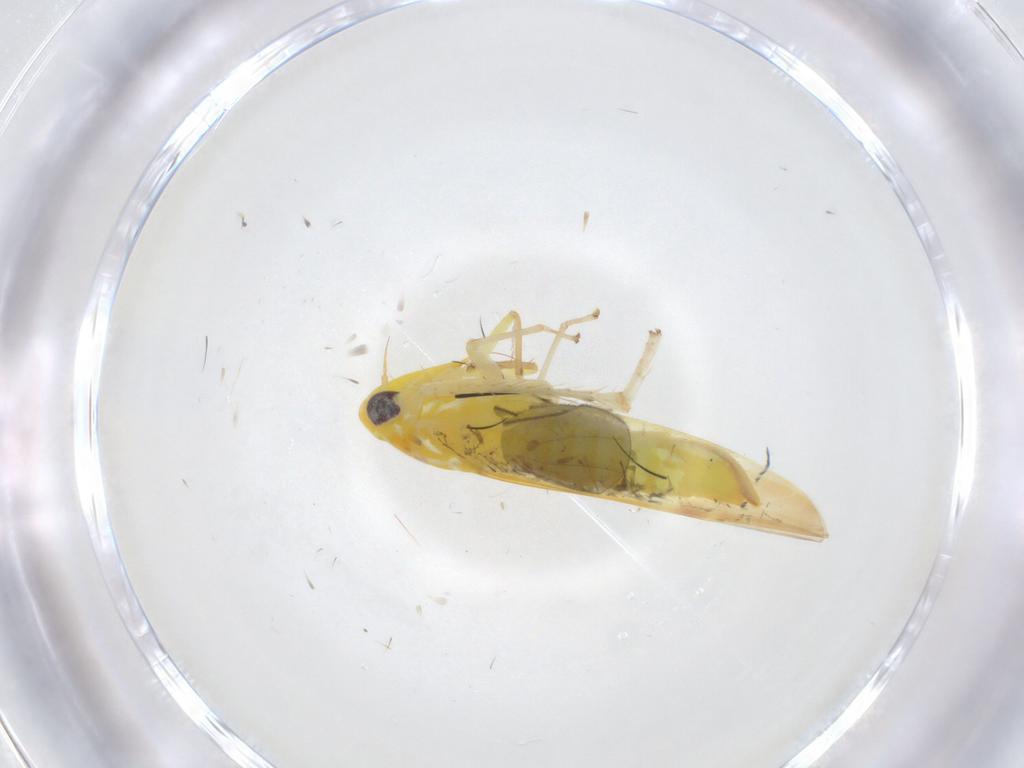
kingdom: Animalia
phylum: Arthropoda
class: Insecta
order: Hemiptera
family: Cicadellidae
